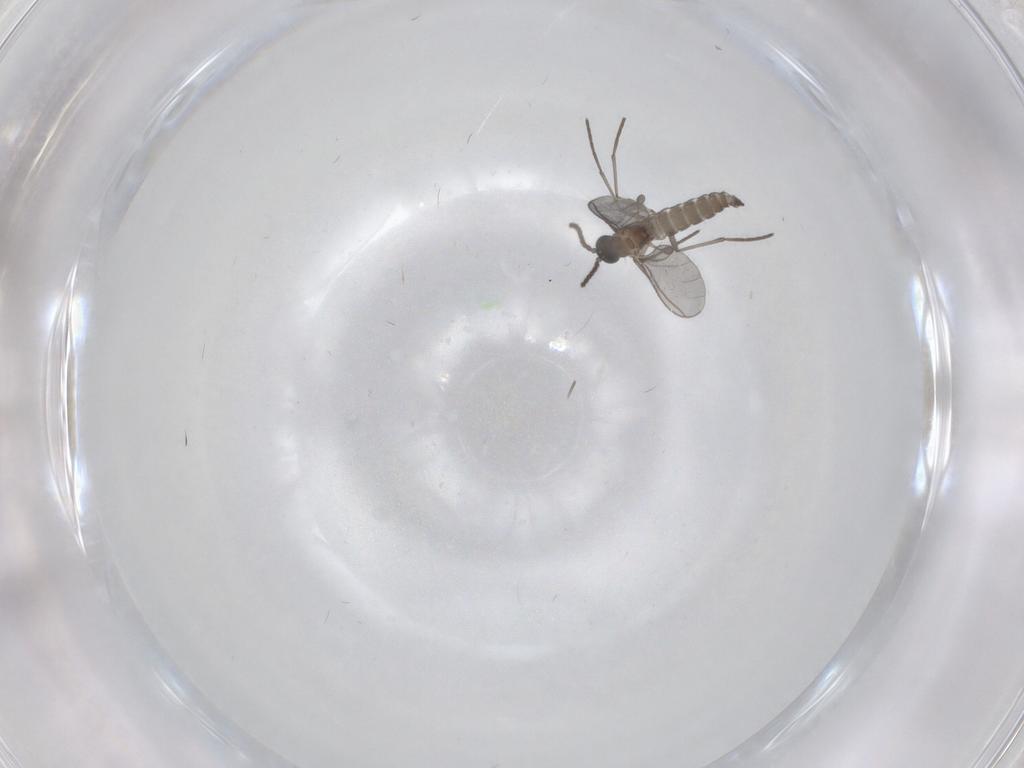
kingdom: Animalia
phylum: Arthropoda
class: Insecta
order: Diptera
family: Sciaridae
